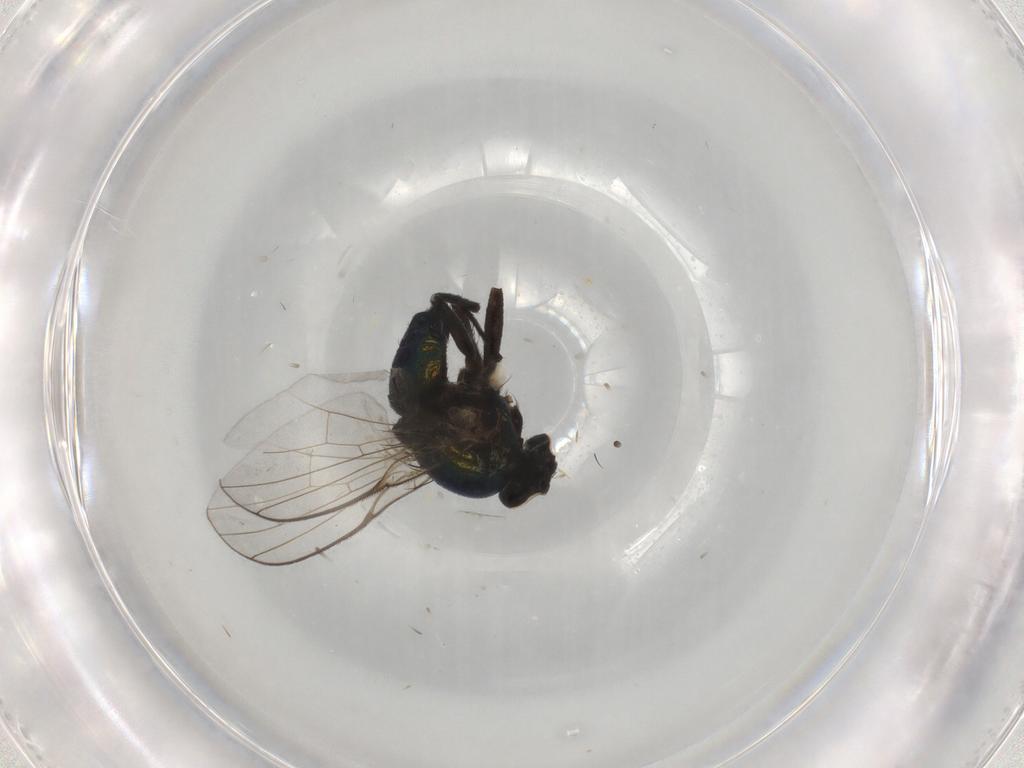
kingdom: Animalia
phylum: Arthropoda
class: Insecta
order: Diptera
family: Agromyzidae
